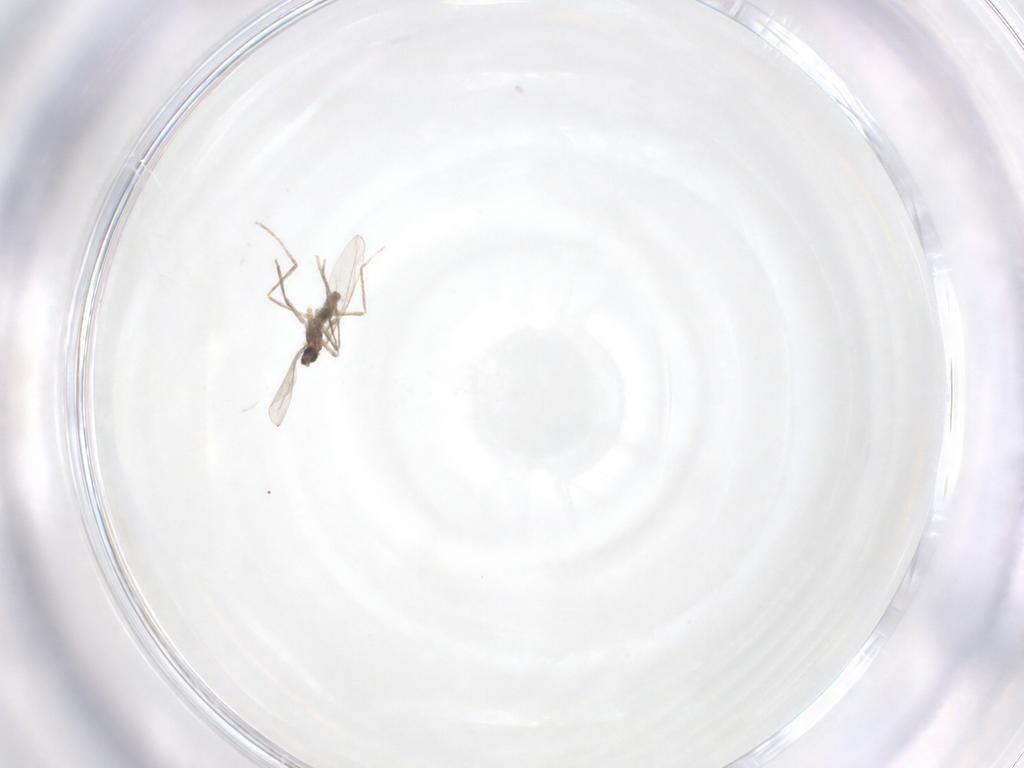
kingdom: Animalia
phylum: Arthropoda
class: Insecta
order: Diptera
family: Cecidomyiidae
